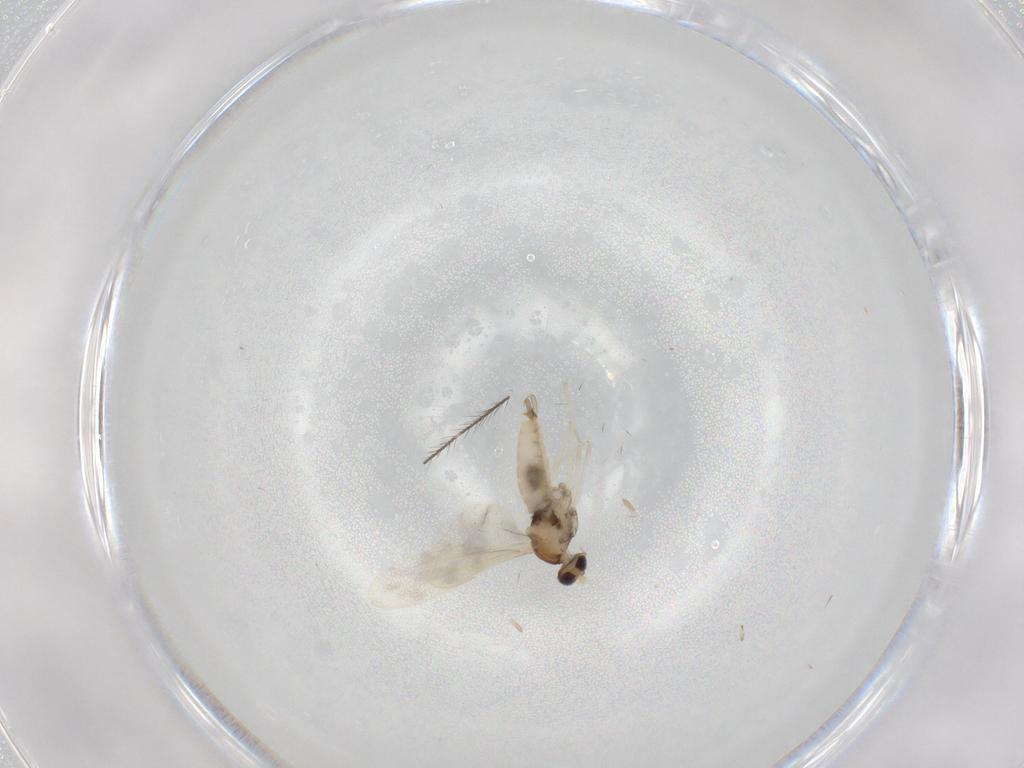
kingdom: Animalia
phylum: Arthropoda
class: Insecta
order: Diptera
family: Cecidomyiidae
